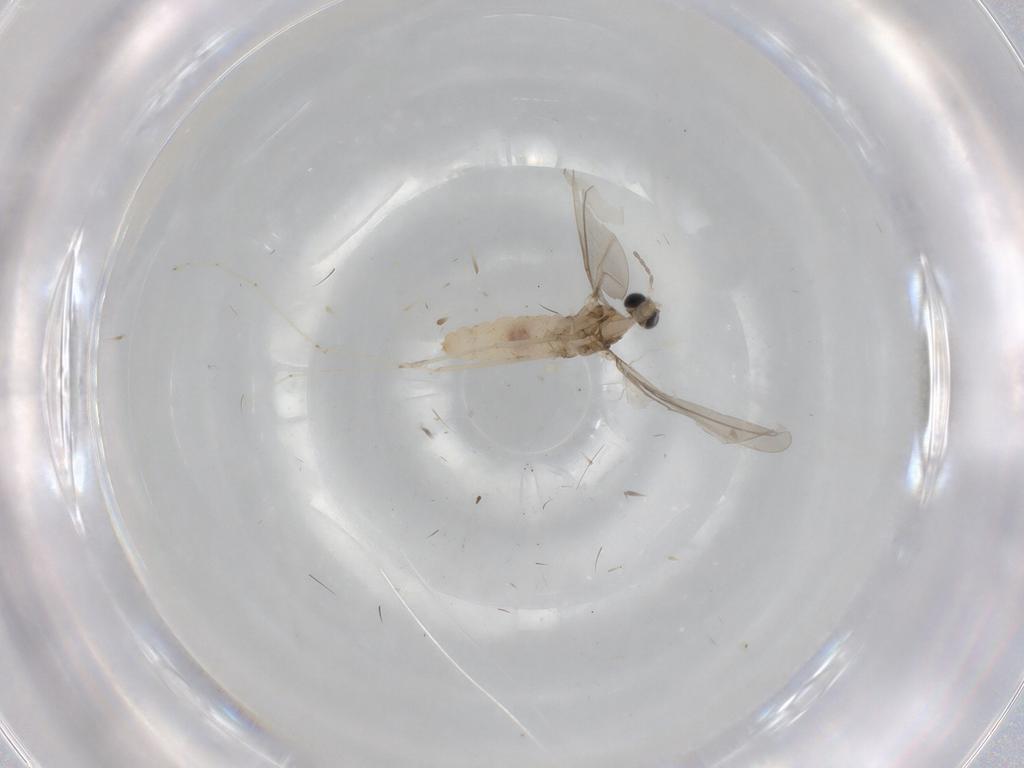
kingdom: Animalia
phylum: Arthropoda
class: Insecta
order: Diptera
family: Cecidomyiidae
